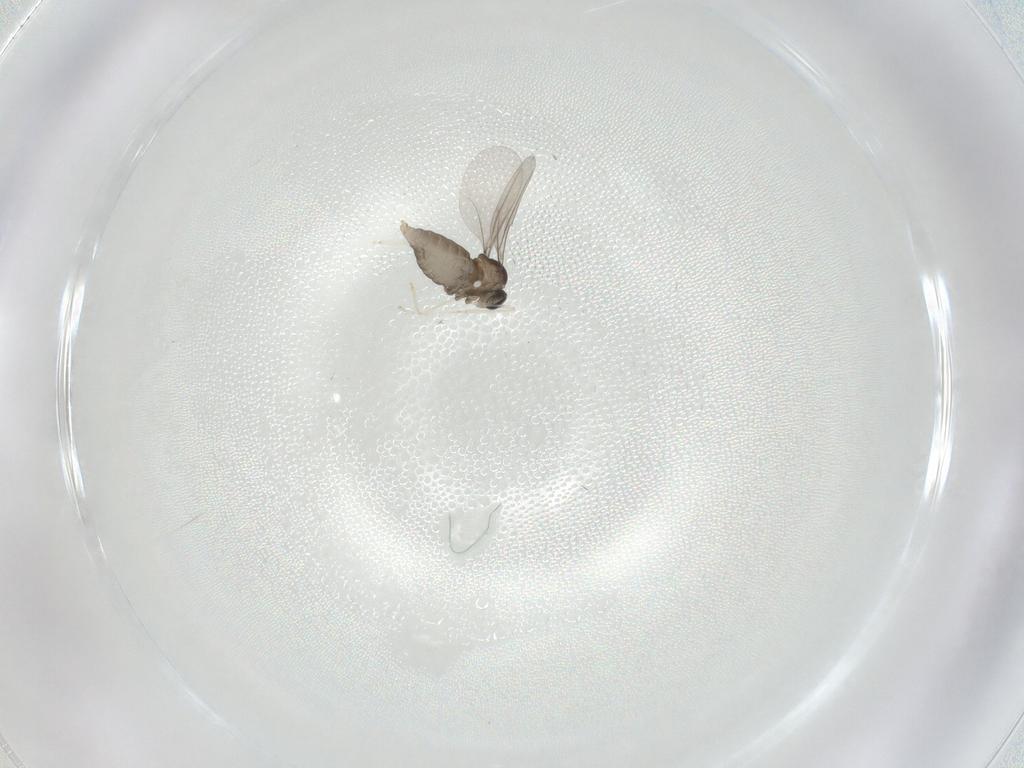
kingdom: Animalia
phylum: Arthropoda
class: Insecta
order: Diptera
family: Cecidomyiidae
